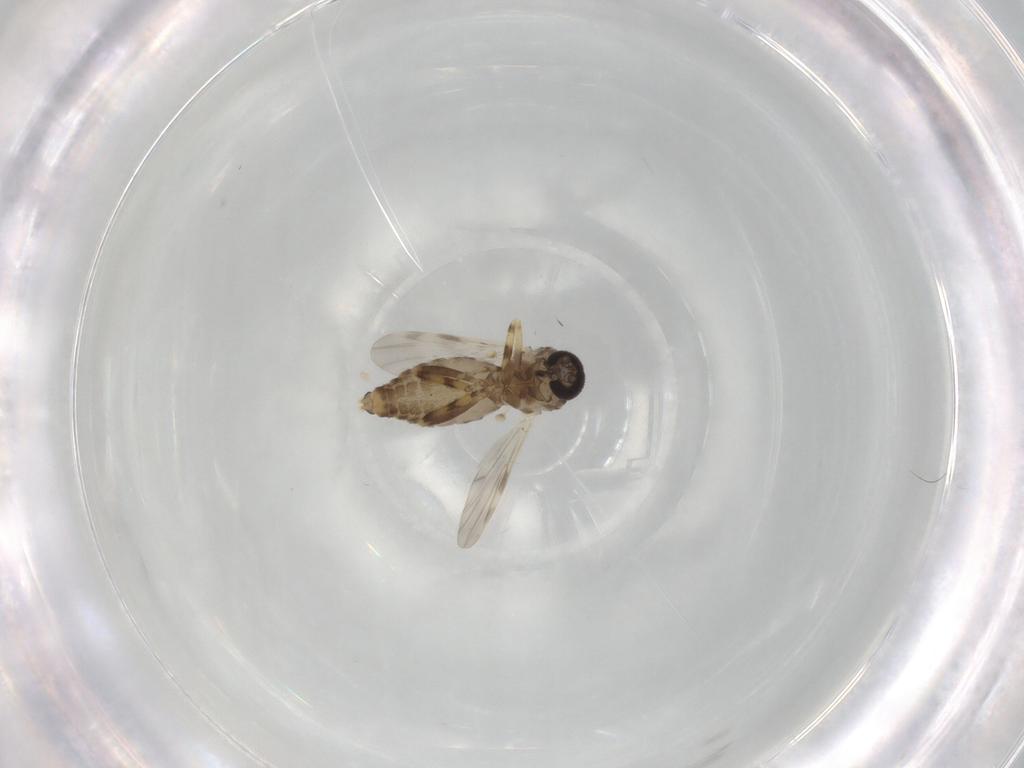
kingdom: Animalia
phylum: Arthropoda
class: Insecta
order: Diptera
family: Ceratopogonidae
